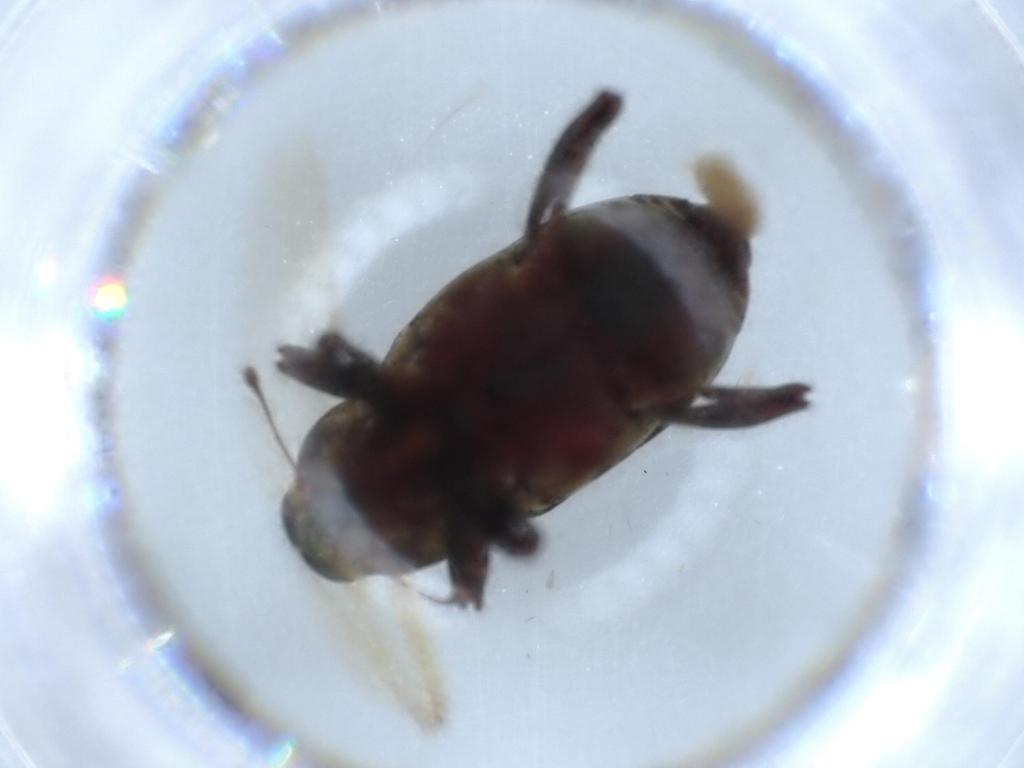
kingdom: Animalia
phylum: Arthropoda
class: Insecta
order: Coleoptera
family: Curculionidae
